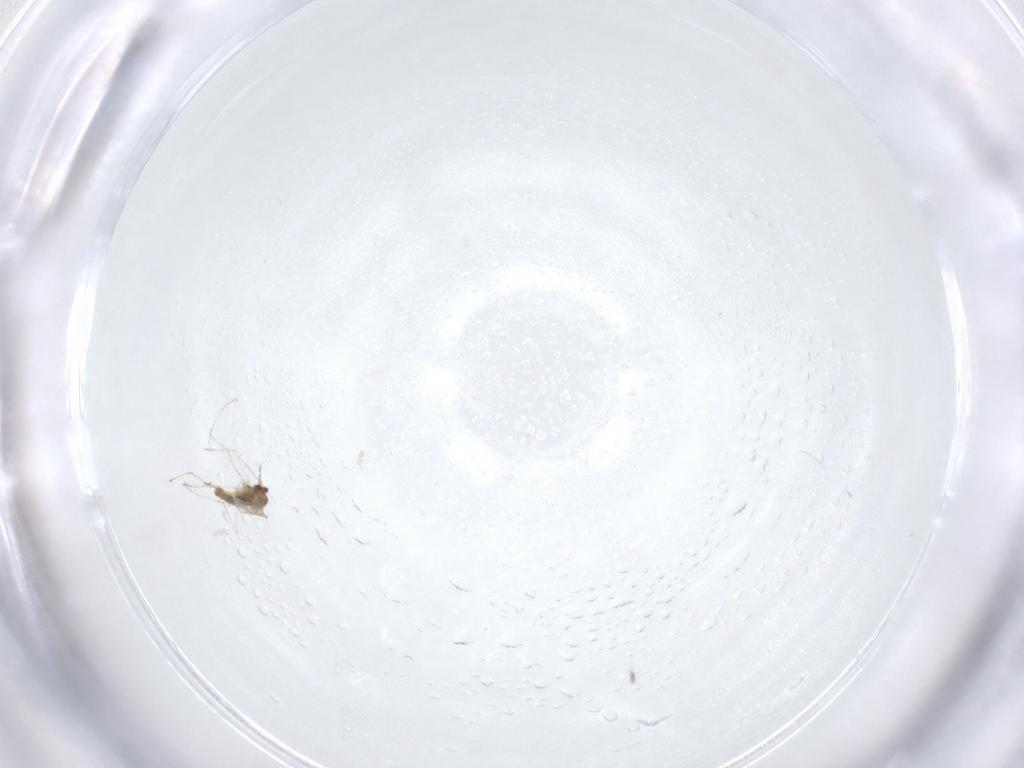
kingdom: Animalia
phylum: Arthropoda
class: Insecta
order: Diptera
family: Cecidomyiidae
